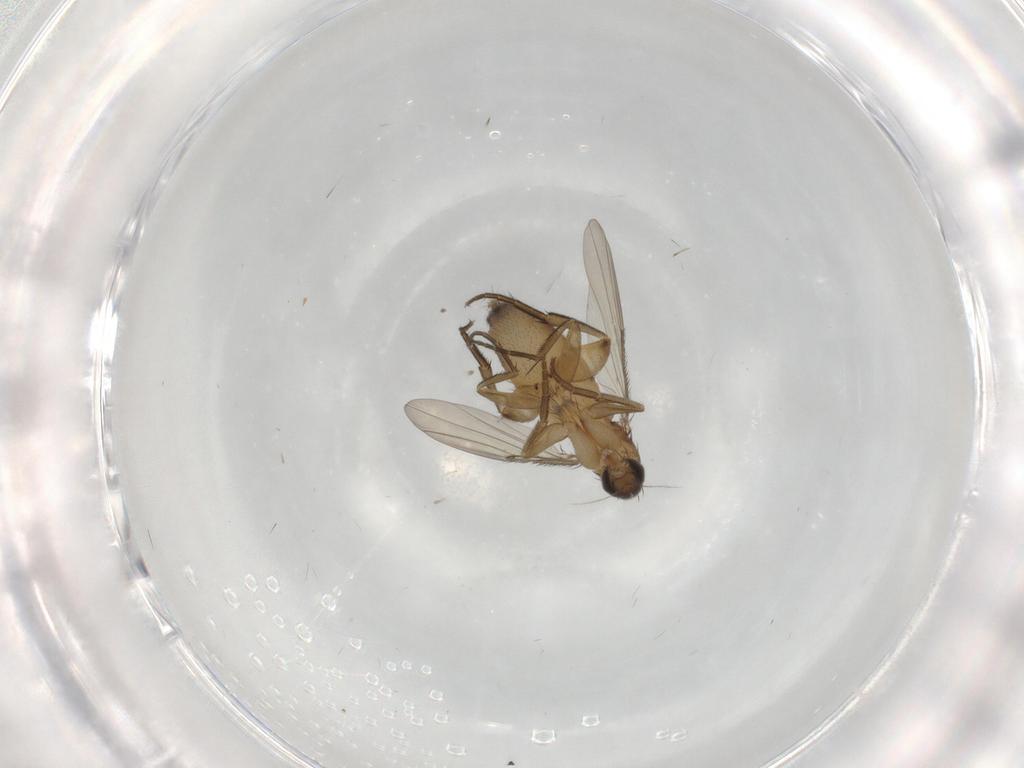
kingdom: Animalia
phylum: Arthropoda
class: Insecta
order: Diptera
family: Phoridae
